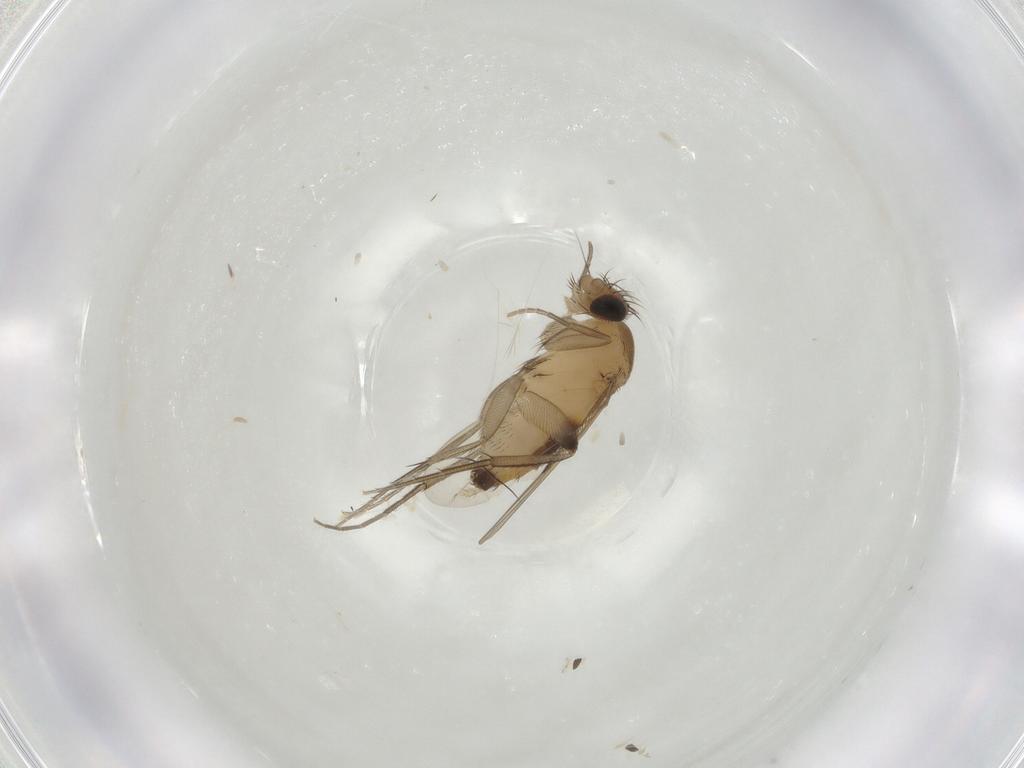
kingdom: Animalia
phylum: Arthropoda
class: Insecta
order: Diptera
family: Phoridae
